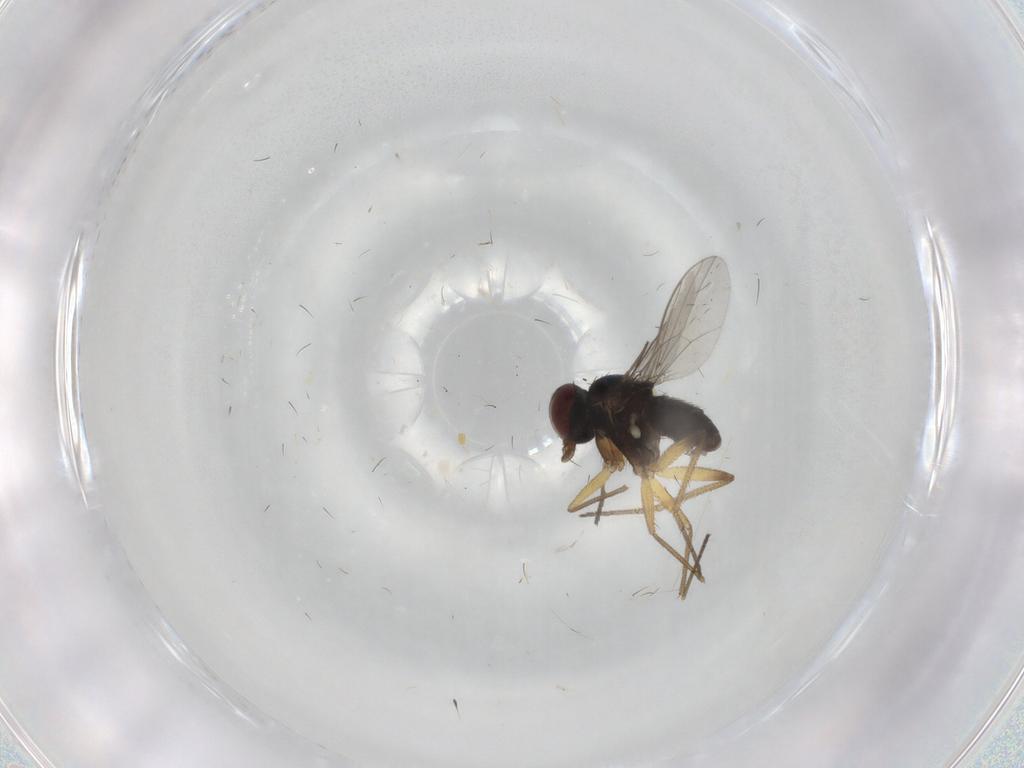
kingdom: Animalia
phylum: Arthropoda
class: Insecta
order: Diptera
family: Dolichopodidae
